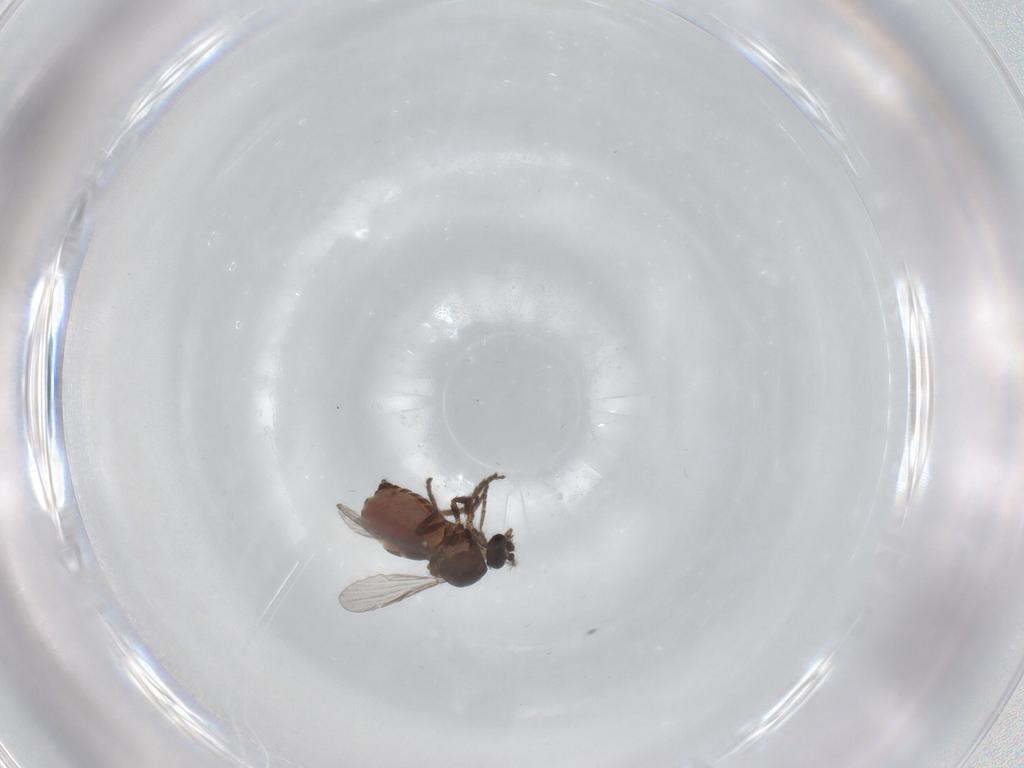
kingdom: Animalia
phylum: Arthropoda
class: Insecta
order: Diptera
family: Ceratopogonidae
